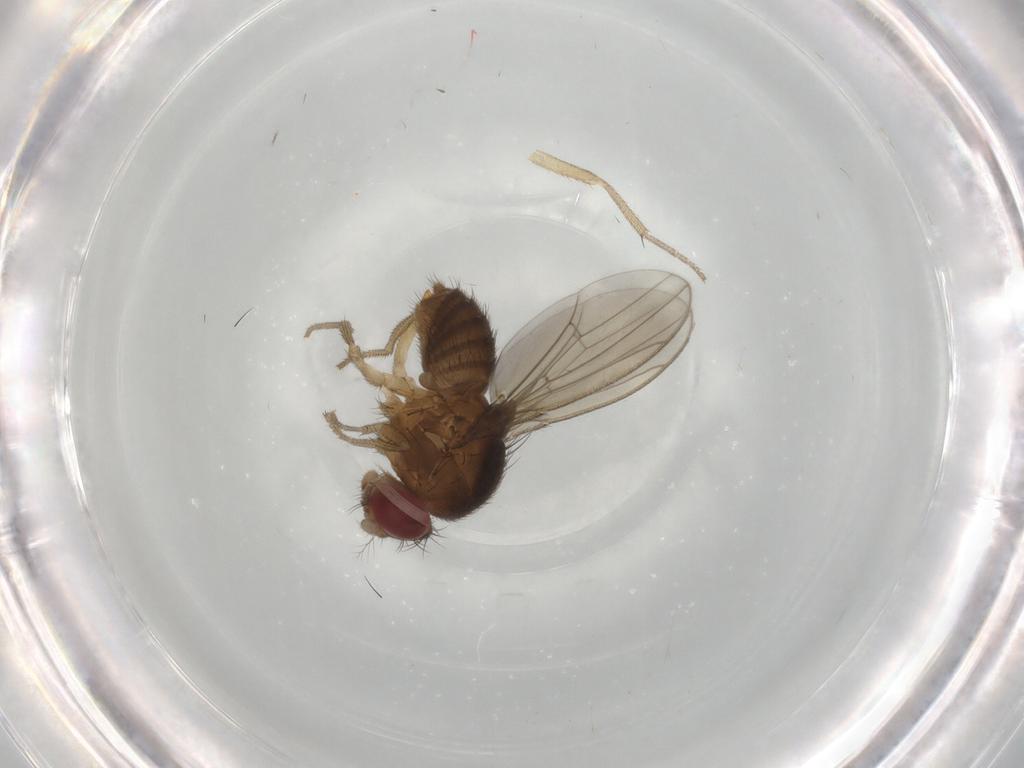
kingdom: Animalia
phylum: Arthropoda
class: Insecta
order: Diptera
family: Drosophilidae
